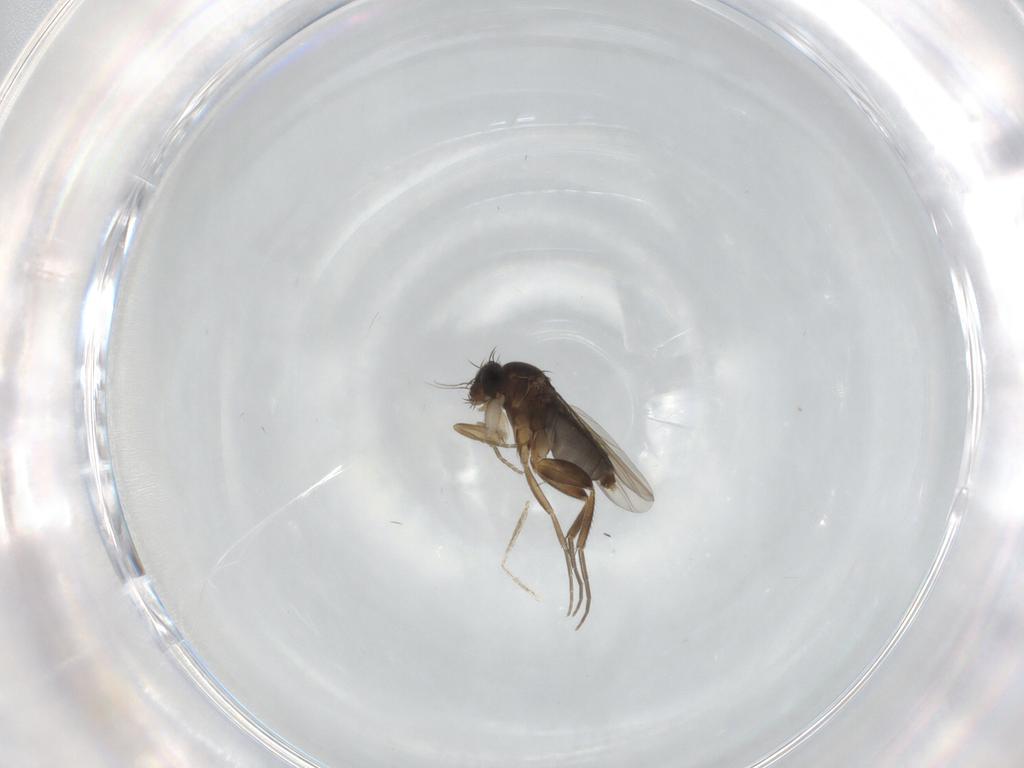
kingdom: Animalia
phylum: Arthropoda
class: Insecta
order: Diptera
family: Phoridae
